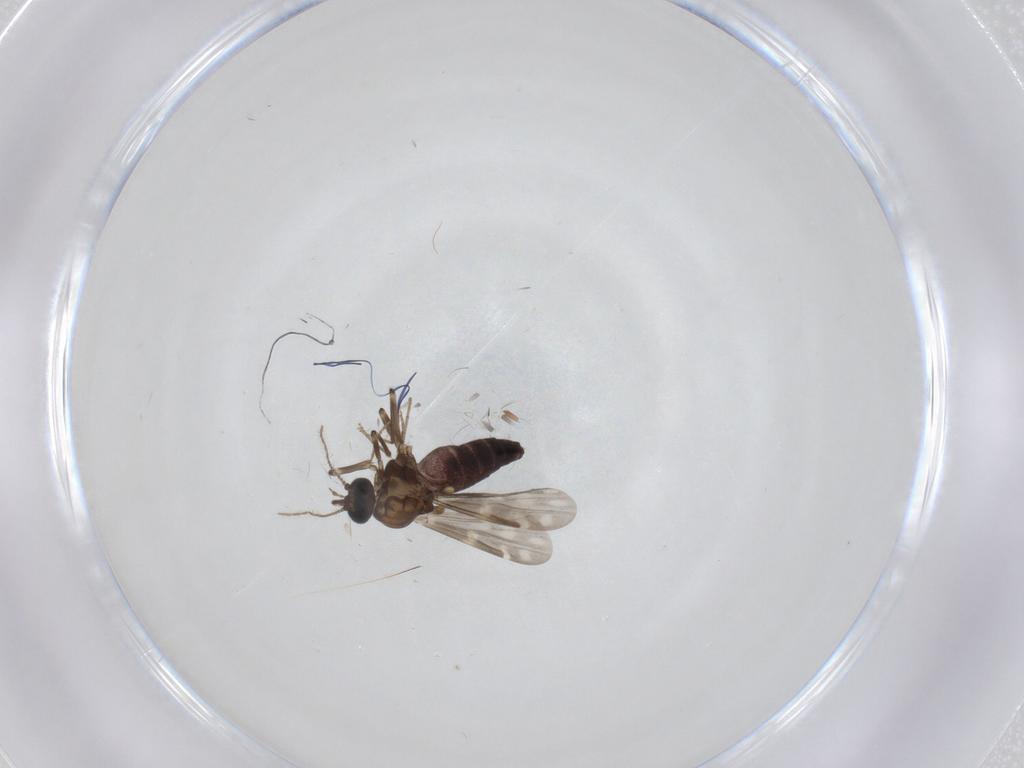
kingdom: Animalia
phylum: Arthropoda
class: Insecta
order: Diptera
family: Ceratopogonidae
